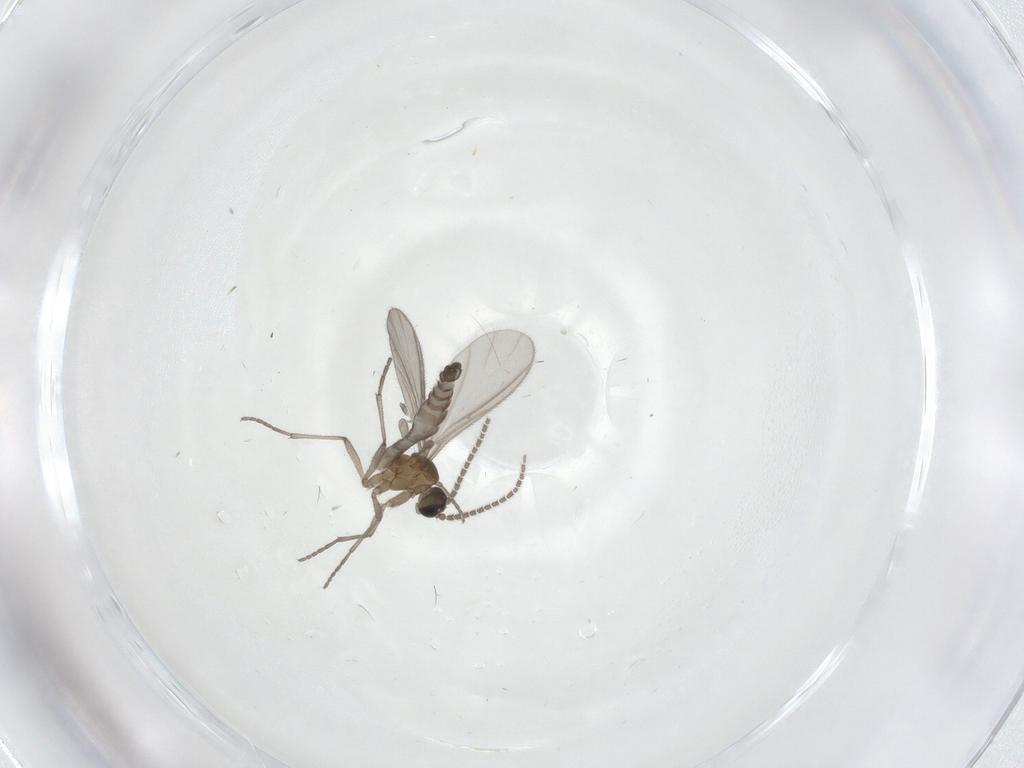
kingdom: Animalia
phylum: Arthropoda
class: Insecta
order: Diptera
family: Sciaridae
